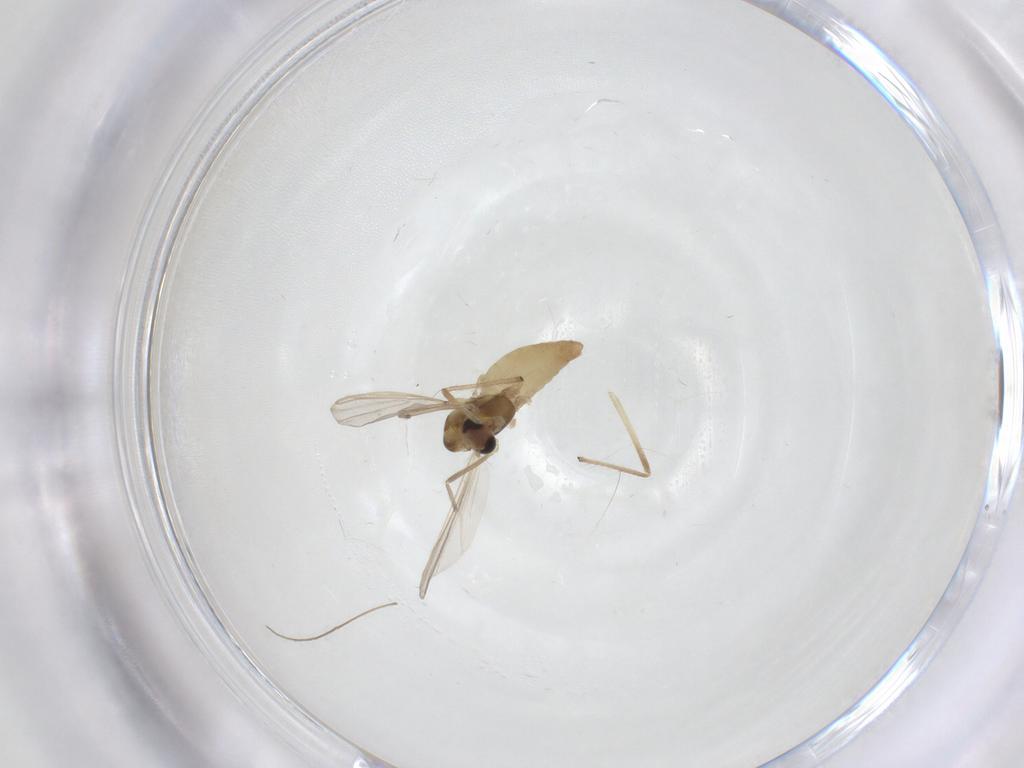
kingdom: Animalia
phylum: Arthropoda
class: Insecta
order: Diptera
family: Chironomidae
